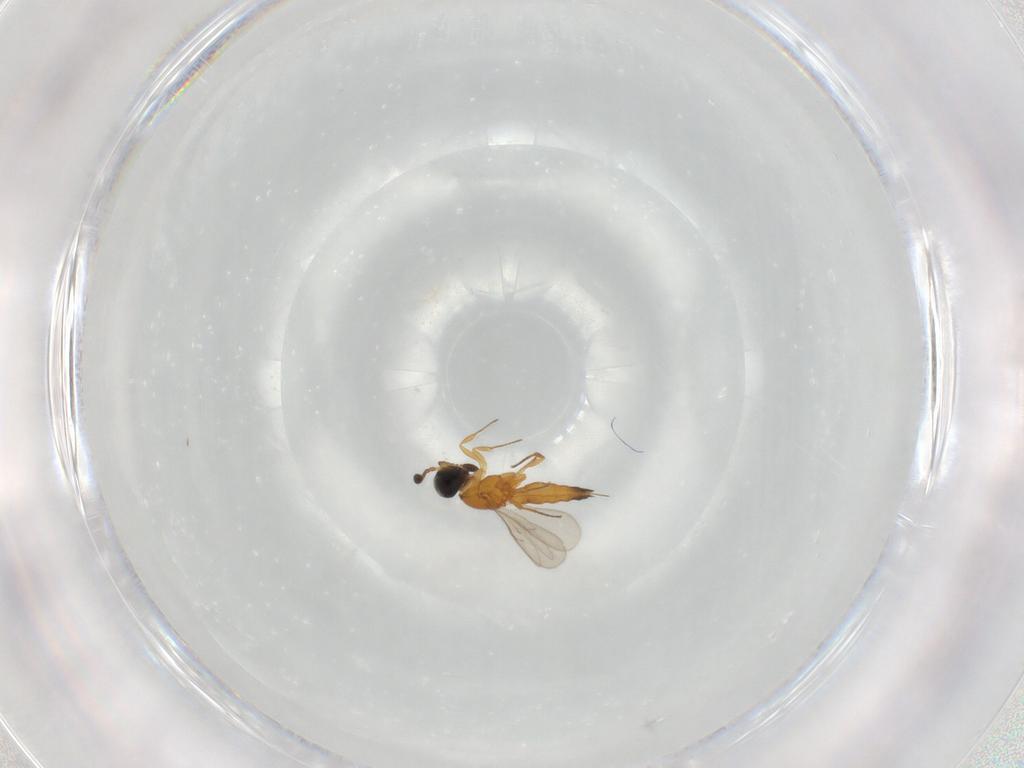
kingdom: Animalia
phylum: Arthropoda
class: Insecta
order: Hymenoptera
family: Scelionidae
